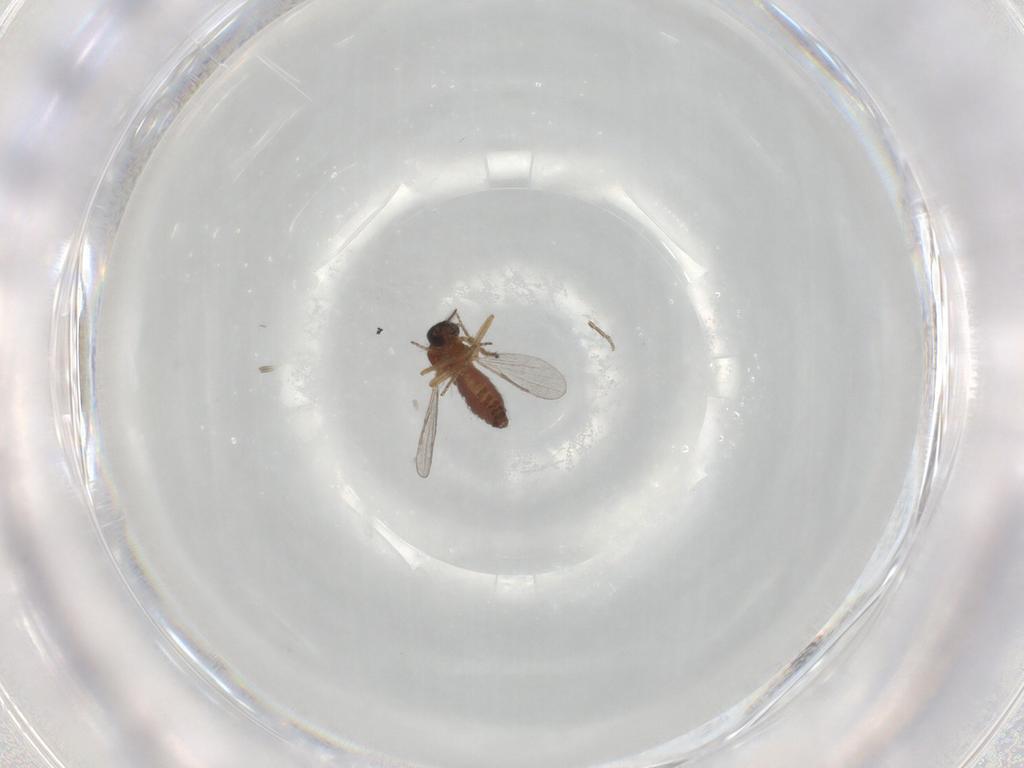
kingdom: Animalia
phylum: Arthropoda
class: Insecta
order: Diptera
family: Ceratopogonidae
